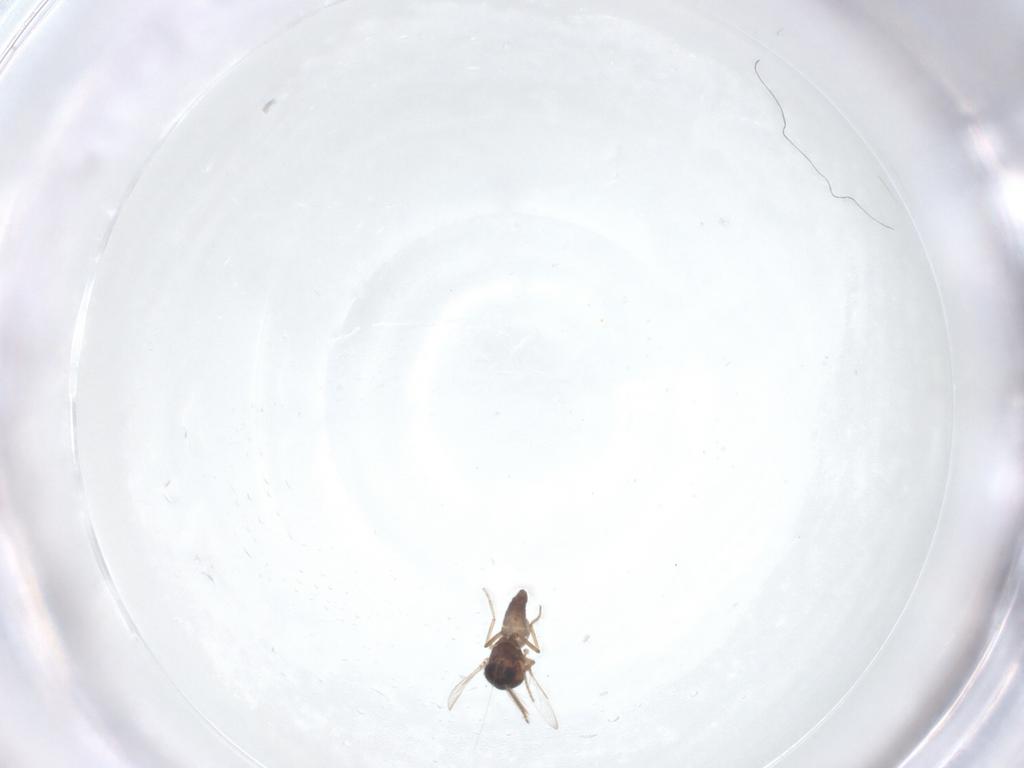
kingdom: Animalia
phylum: Arthropoda
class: Insecta
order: Diptera
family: Ceratopogonidae
